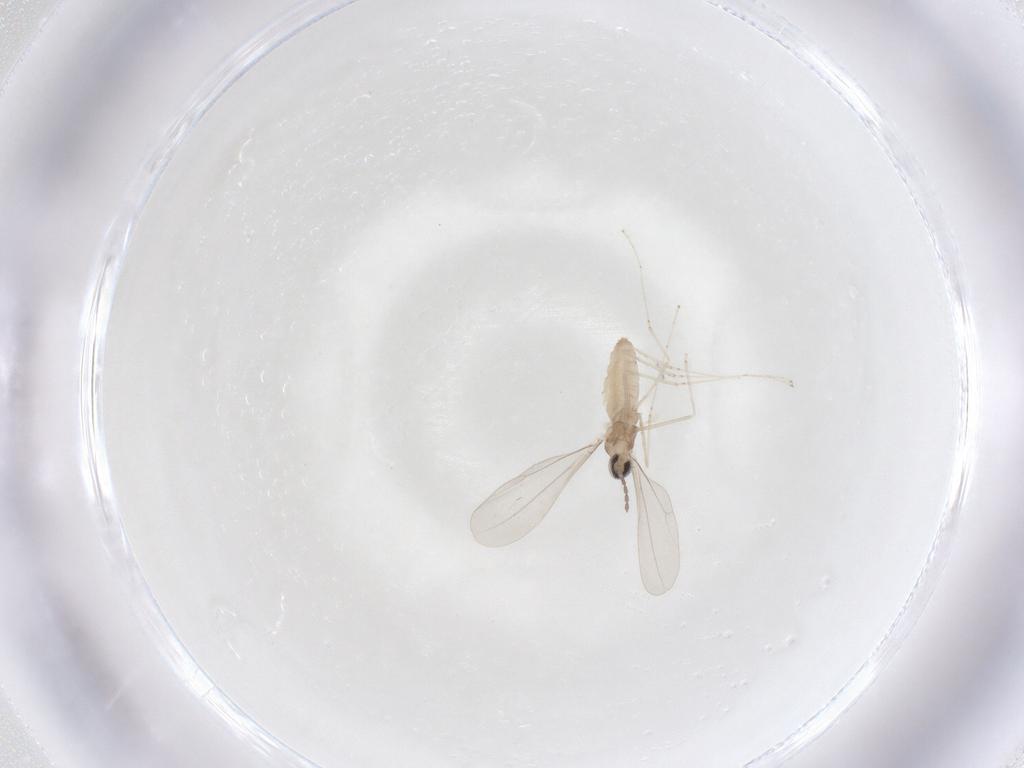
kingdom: Animalia
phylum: Arthropoda
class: Insecta
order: Diptera
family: Cecidomyiidae
